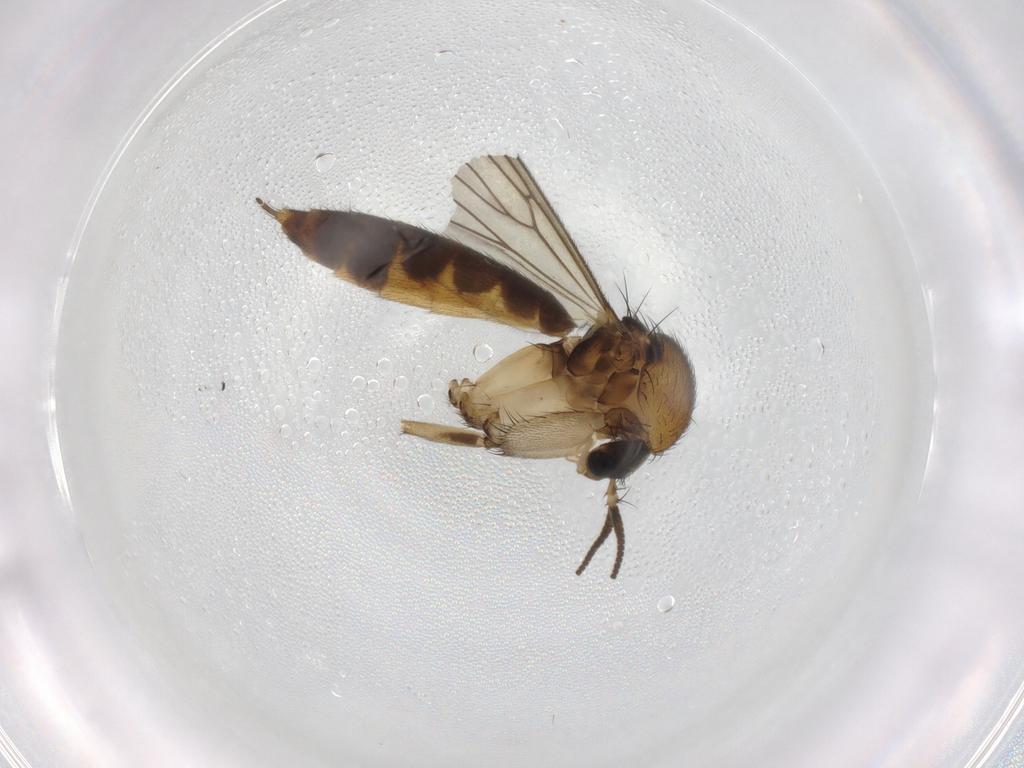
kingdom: Animalia
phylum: Arthropoda
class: Insecta
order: Diptera
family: Mycetophilidae
